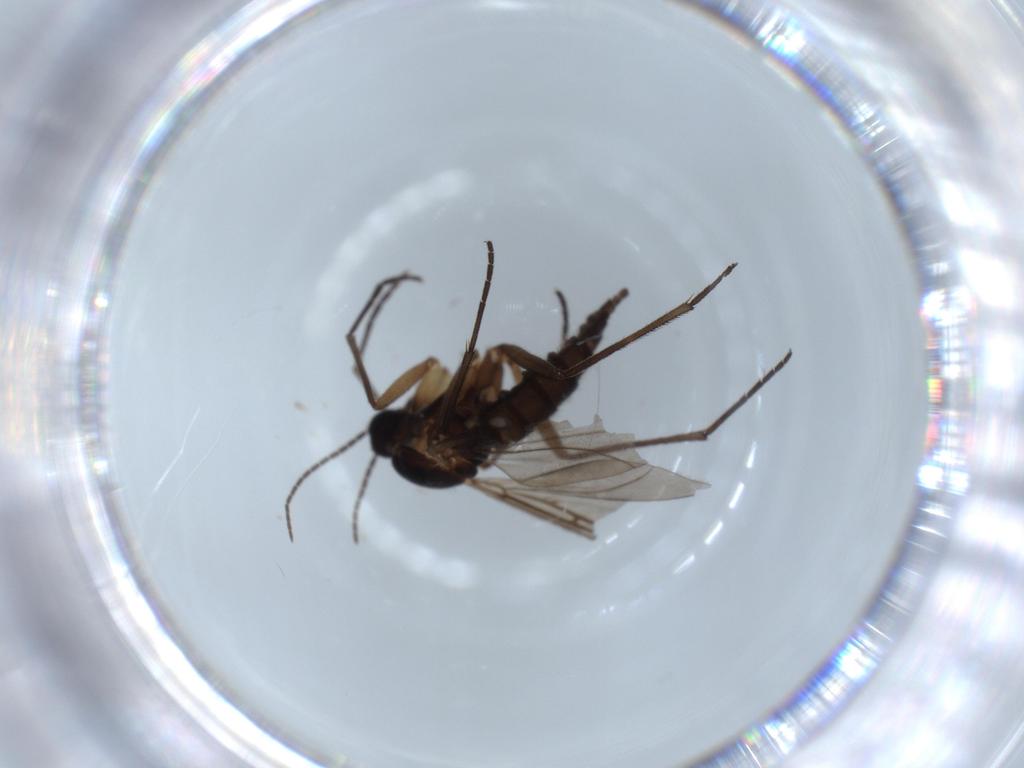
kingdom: Animalia
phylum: Arthropoda
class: Insecta
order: Diptera
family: Sciaridae
